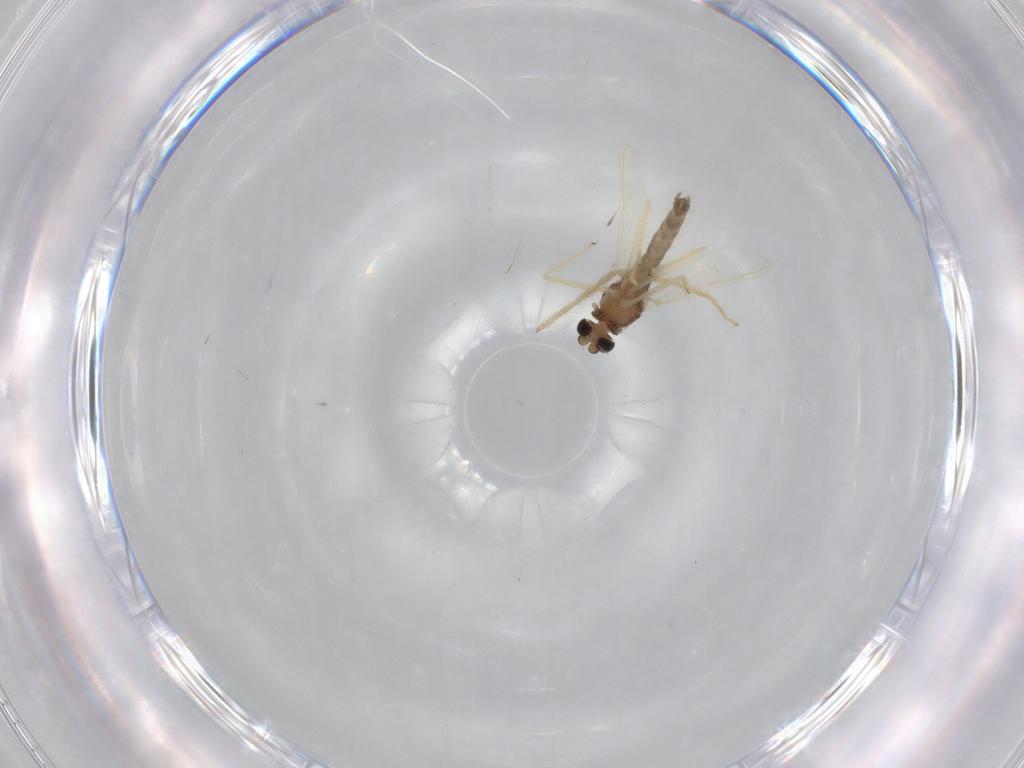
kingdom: Animalia
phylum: Arthropoda
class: Insecta
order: Diptera
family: Chironomidae
